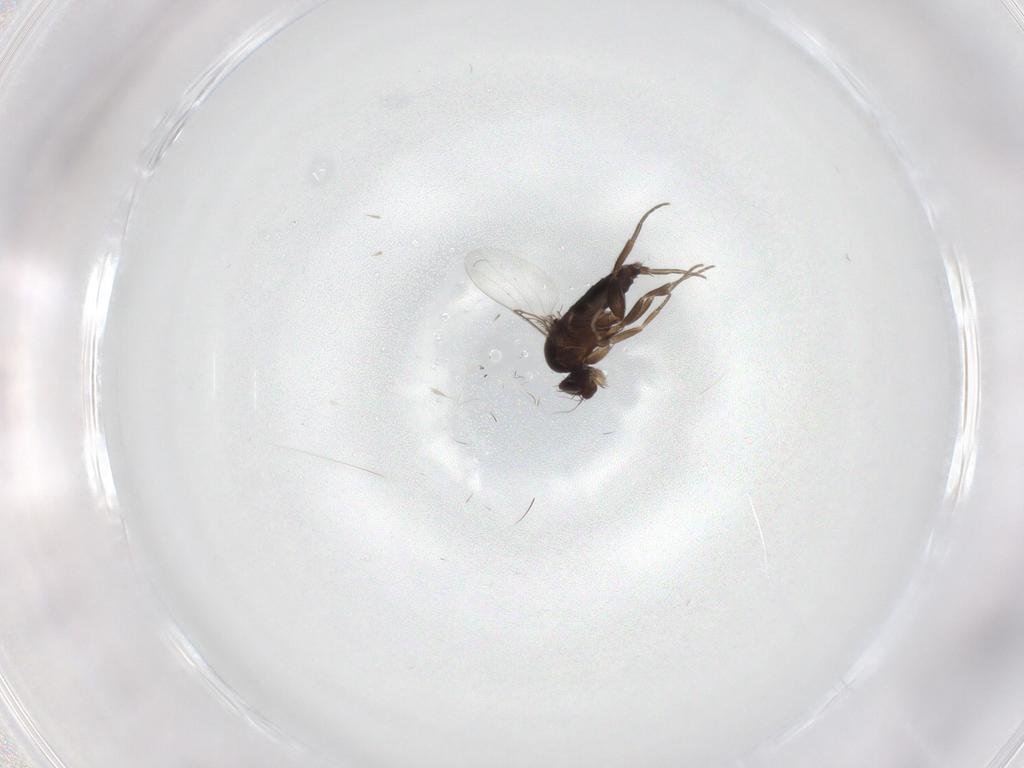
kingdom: Animalia
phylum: Arthropoda
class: Insecta
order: Diptera
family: Phoridae
